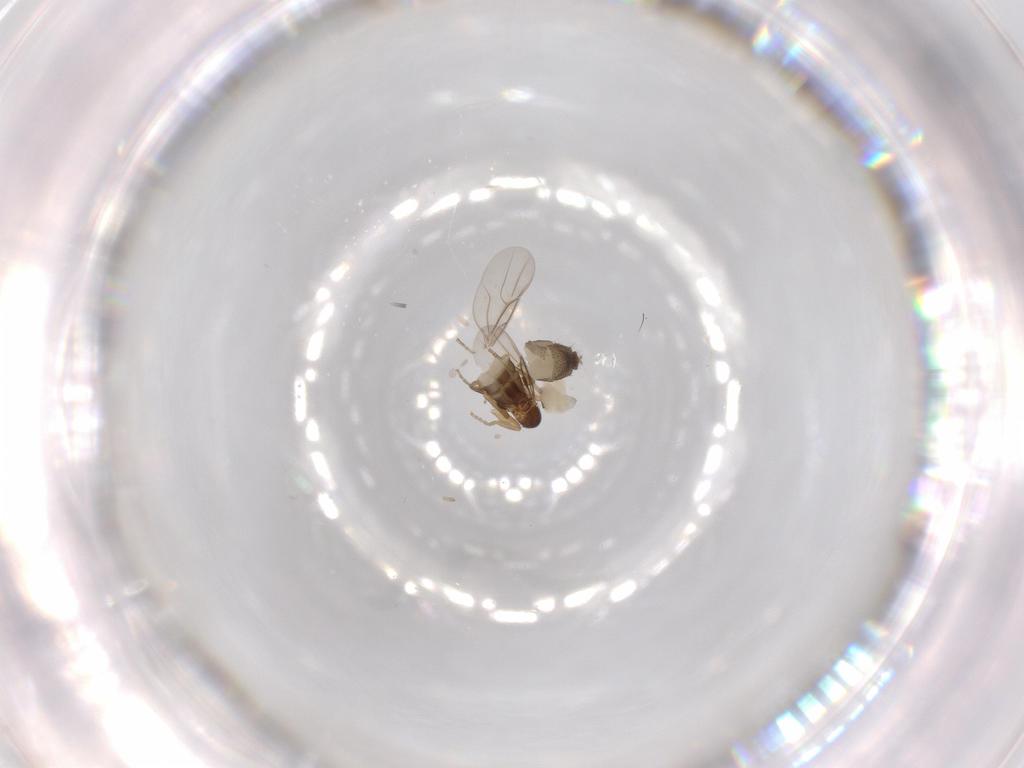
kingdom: Animalia
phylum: Arthropoda
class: Insecta
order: Diptera
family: Phoridae
